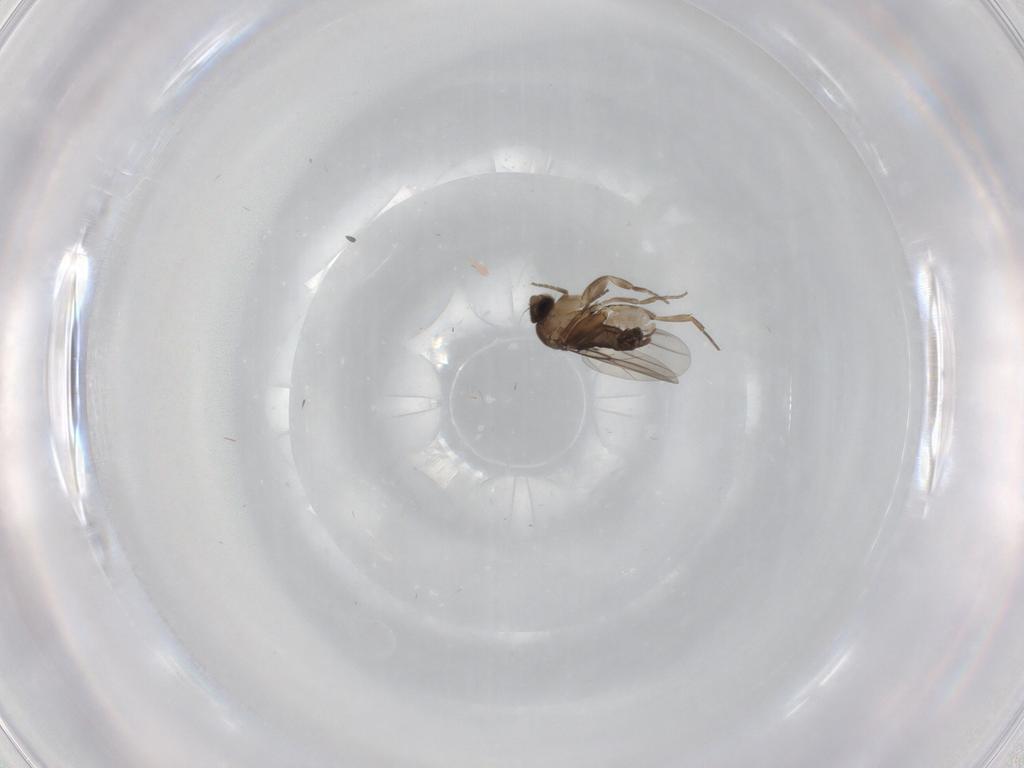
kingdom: Animalia
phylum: Arthropoda
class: Insecta
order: Diptera
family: Phoridae
